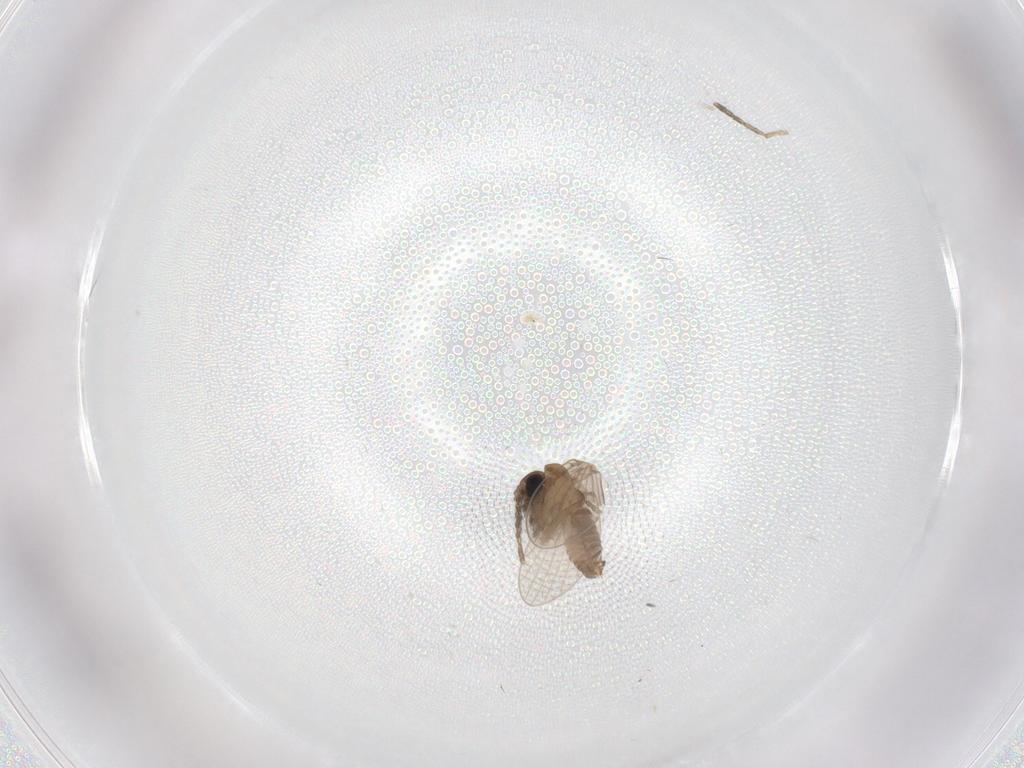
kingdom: Animalia
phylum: Arthropoda
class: Insecta
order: Diptera
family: Psychodidae
